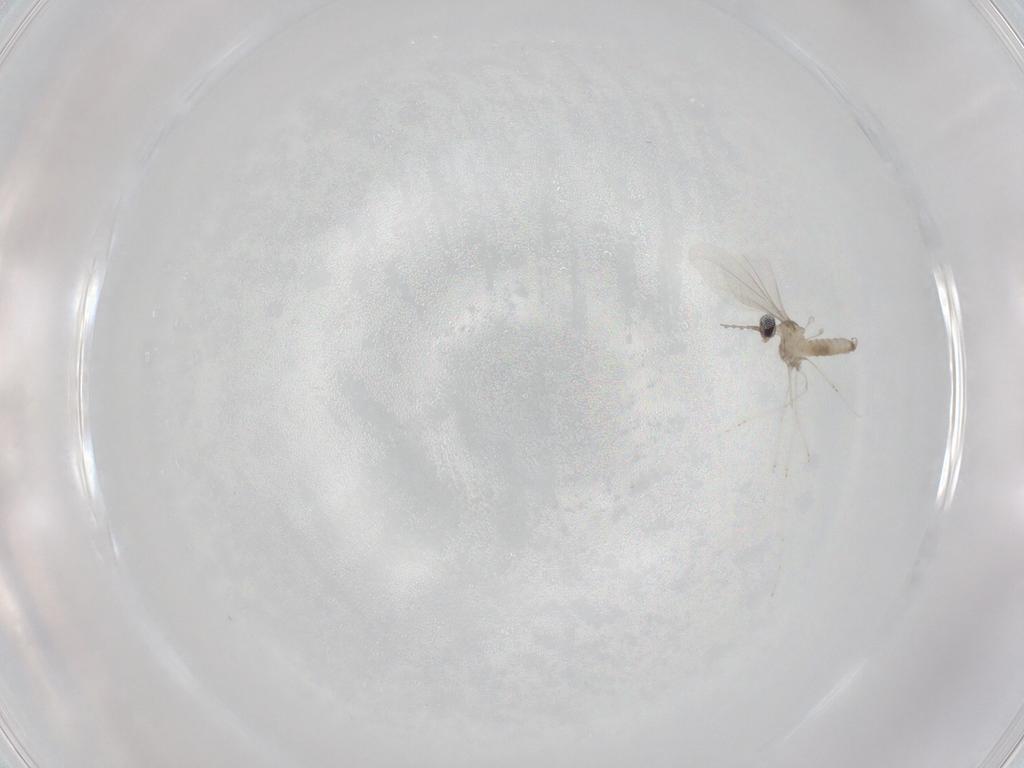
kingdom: Animalia
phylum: Arthropoda
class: Insecta
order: Diptera
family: Cecidomyiidae
